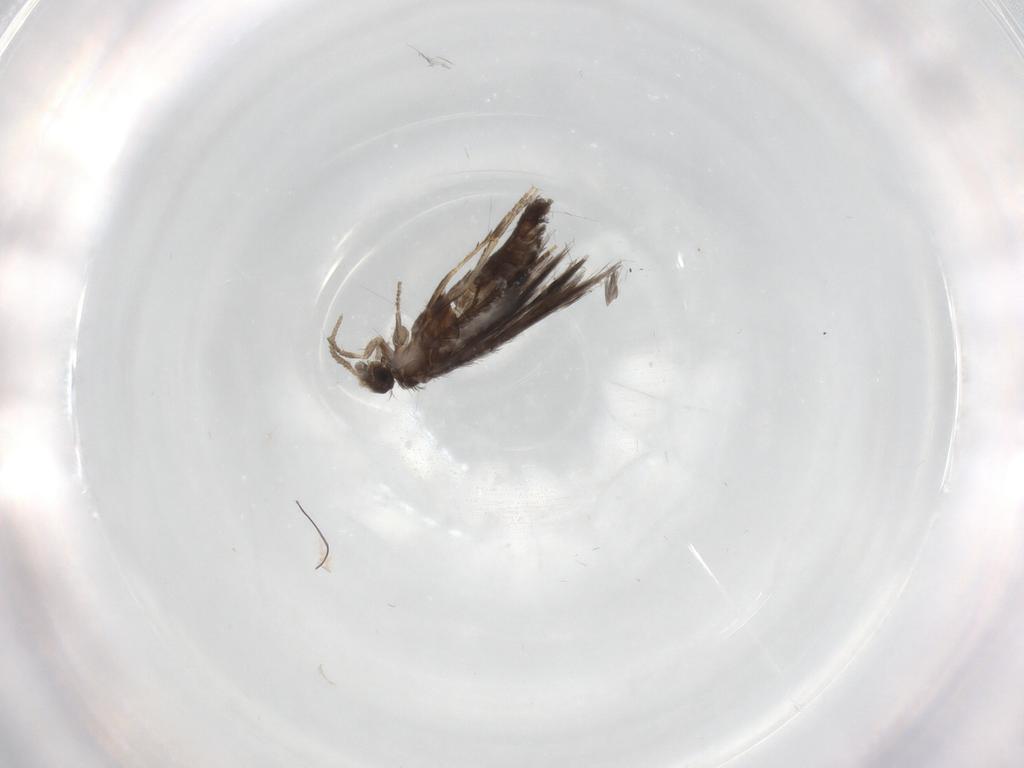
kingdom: Animalia
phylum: Arthropoda
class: Insecta
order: Trichoptera
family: Hydroptilidae
